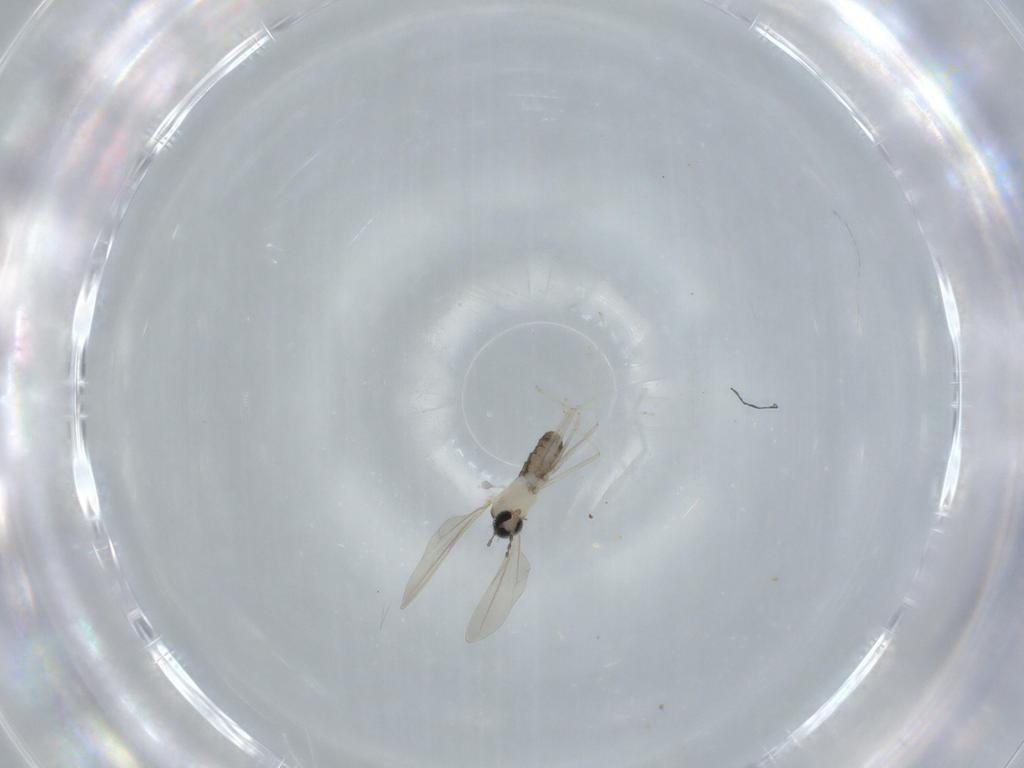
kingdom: Animalia
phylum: Arthropoda
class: Insecta
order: Diptera
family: Cecidomyiidae
